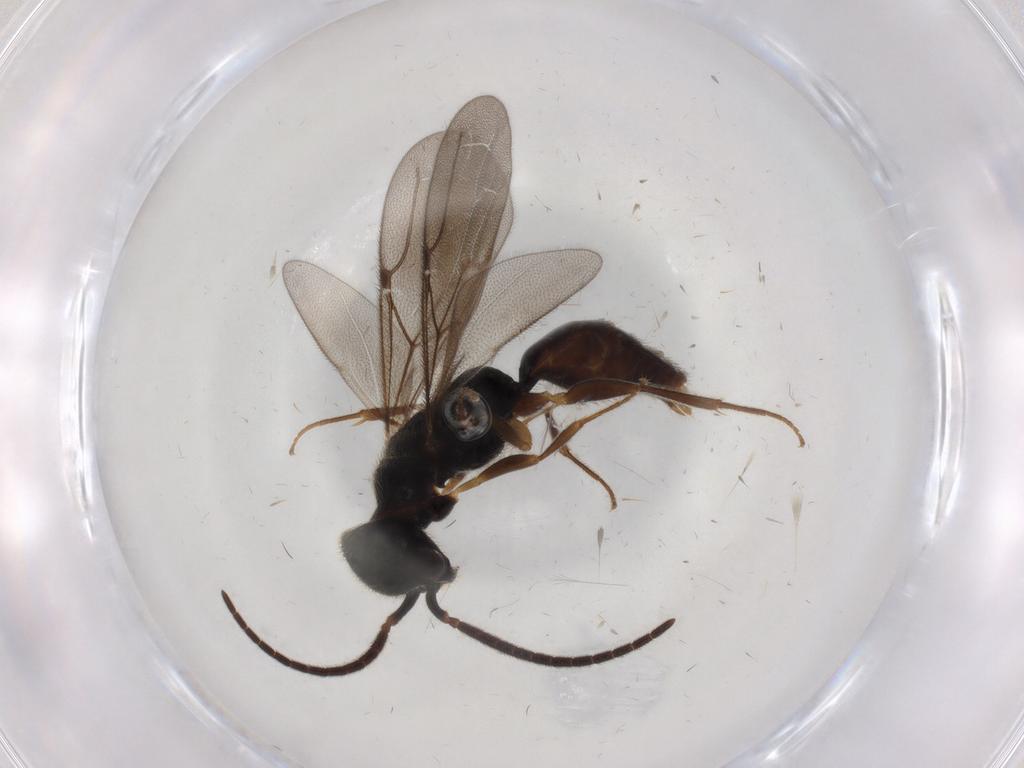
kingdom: Animalia
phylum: Arthropoda
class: Insecta
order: Hymenoptera
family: Bethylidae
